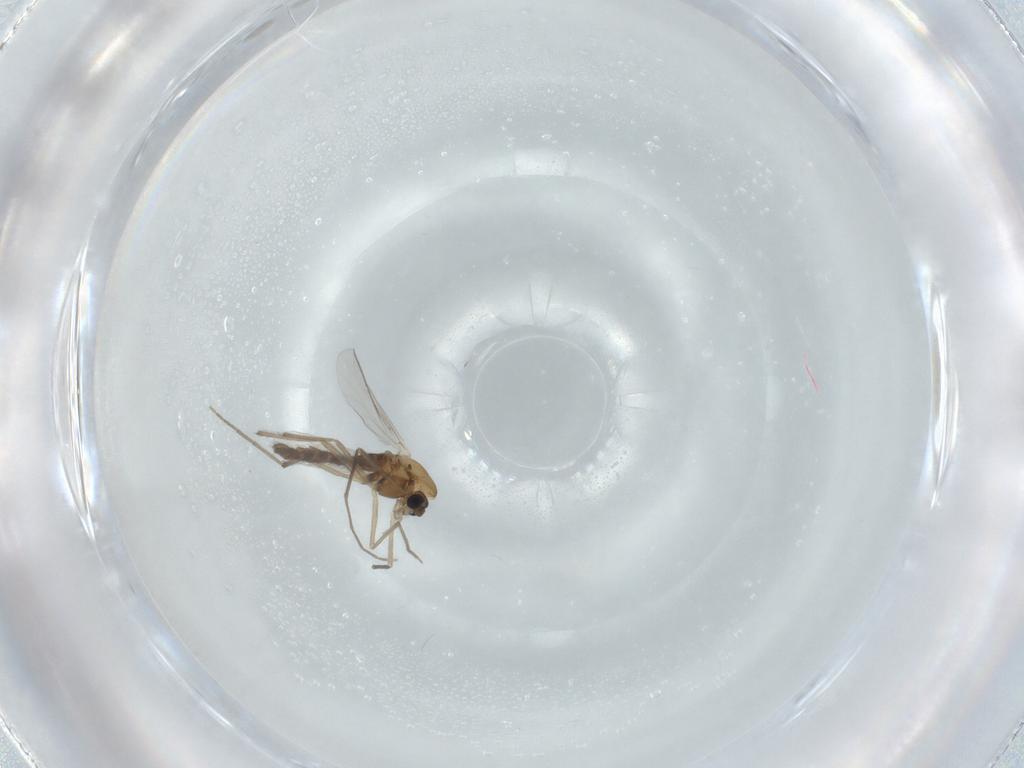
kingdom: Animalia
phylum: Arthropoda
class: Insecta
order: Diptera
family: Chironomidae
